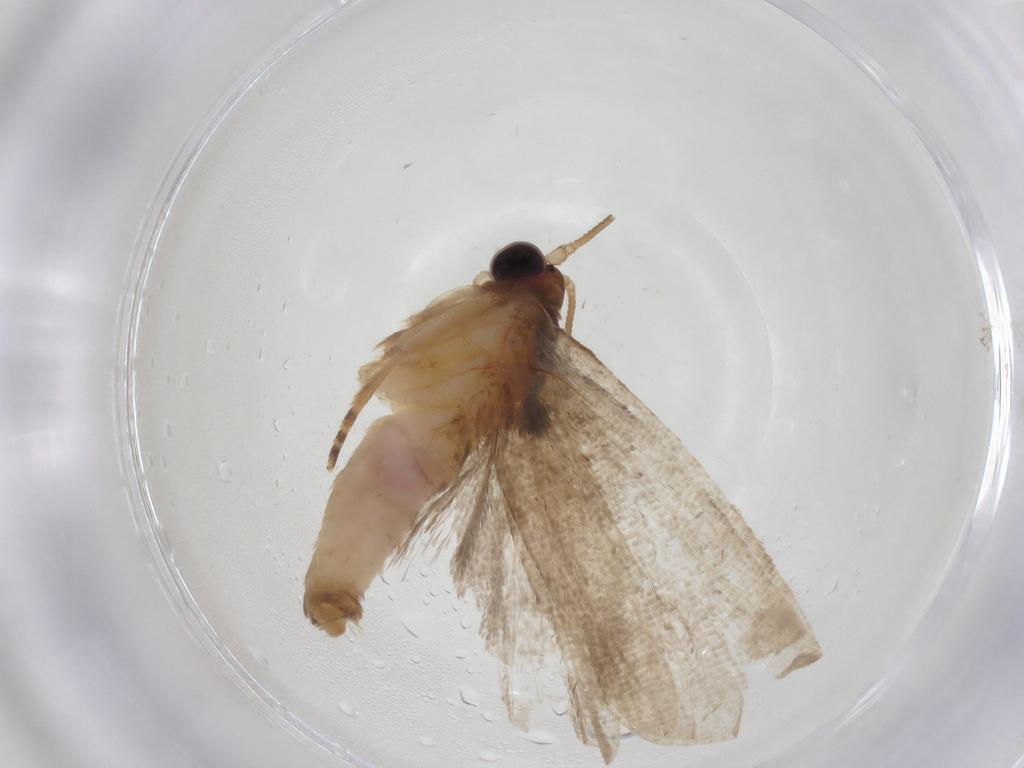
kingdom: Animalia
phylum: Arthropoda
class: Insecta
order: Lepidoptera
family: Tortricidae
